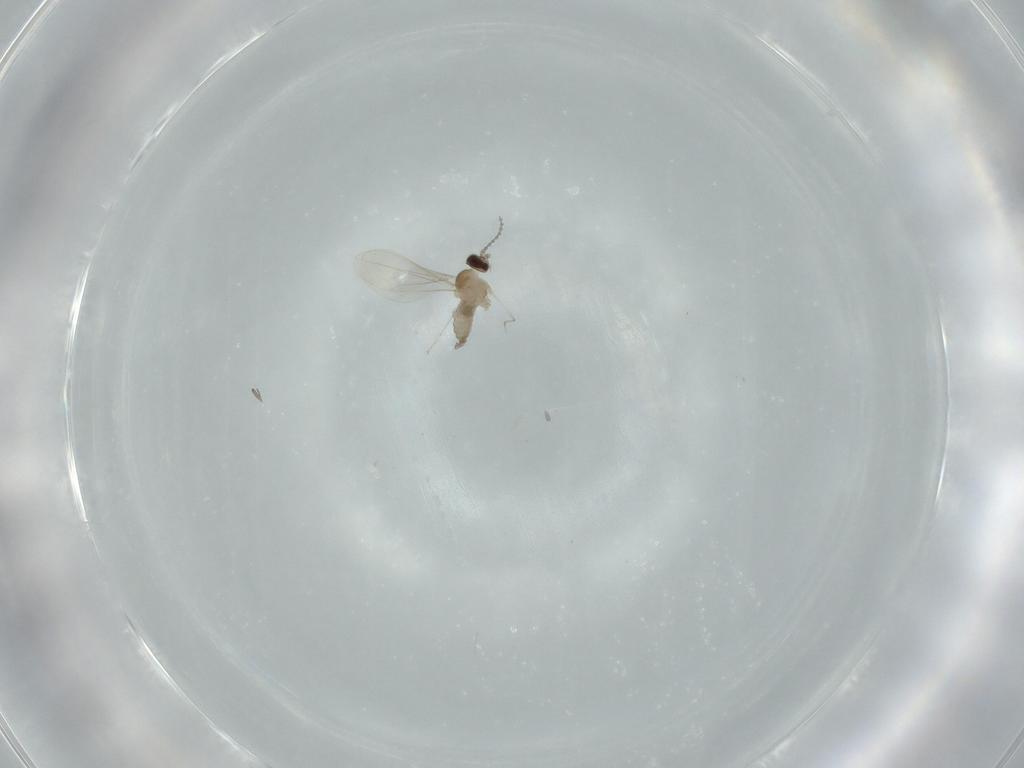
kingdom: Animalia
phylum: Arthropoda
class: Insecta
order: Diptera
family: Cecidomyiidae
